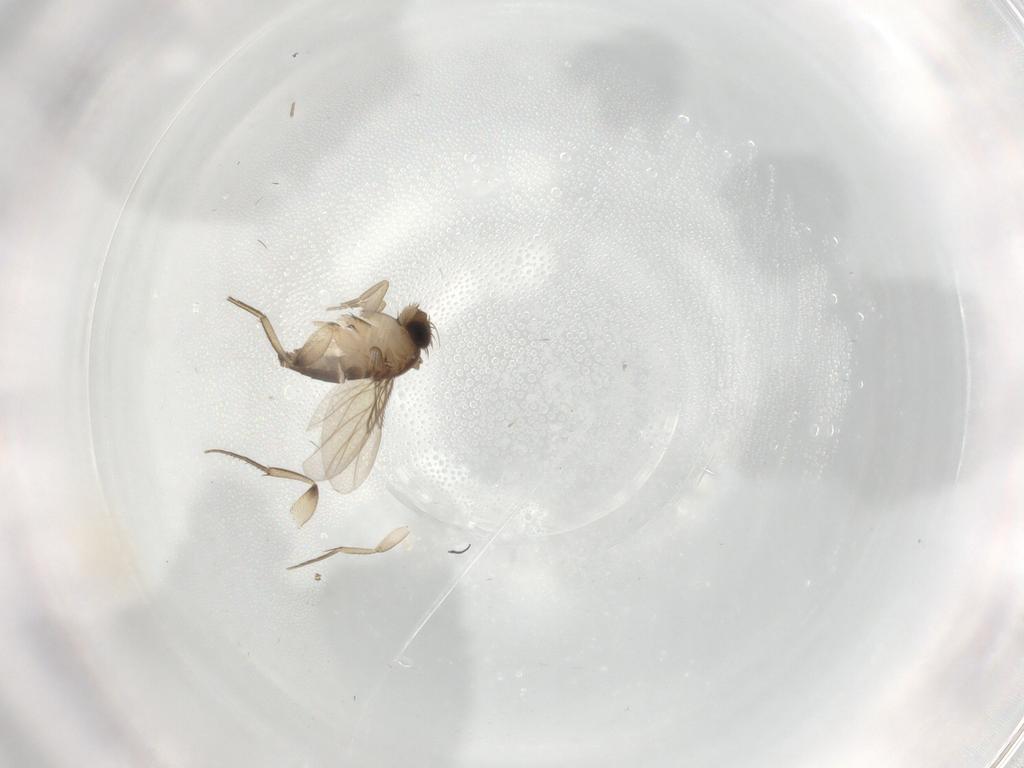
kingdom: Animalia
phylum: Arthropoda
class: Insecta
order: Diptera
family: Phoridae
